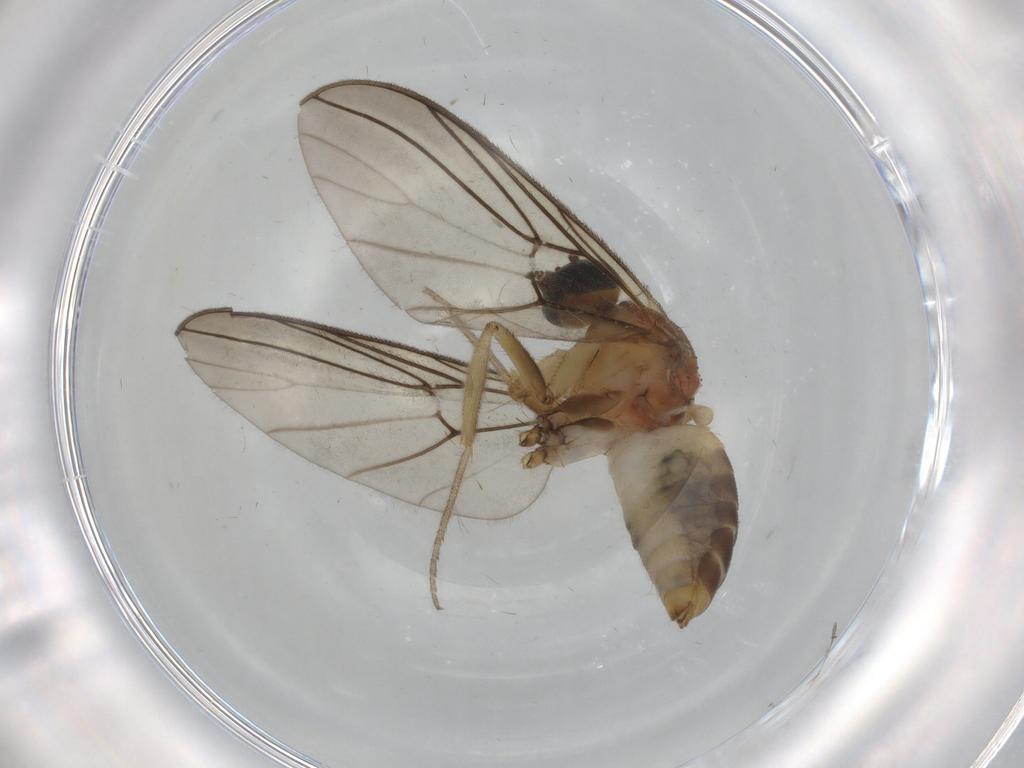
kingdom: Animalia
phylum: Arthropoda
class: Insecta
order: Diptera
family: Anisopodidae
